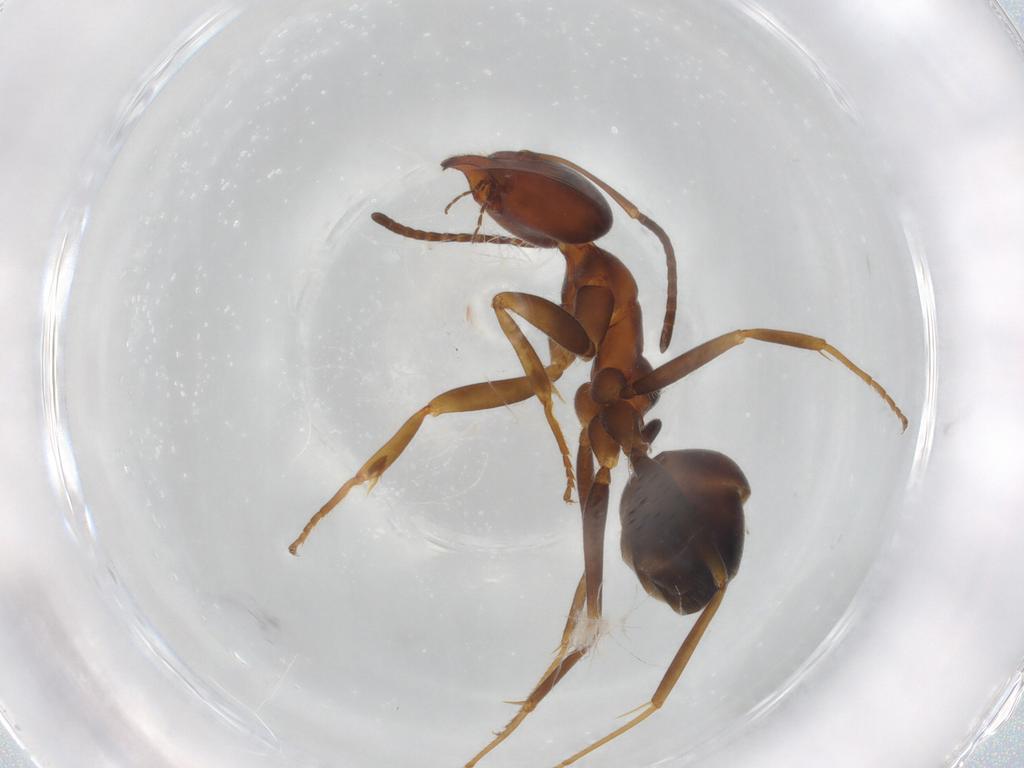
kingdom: Animalia
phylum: Arthropoda
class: Insecta
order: Hymenoptera
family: Formicidae
